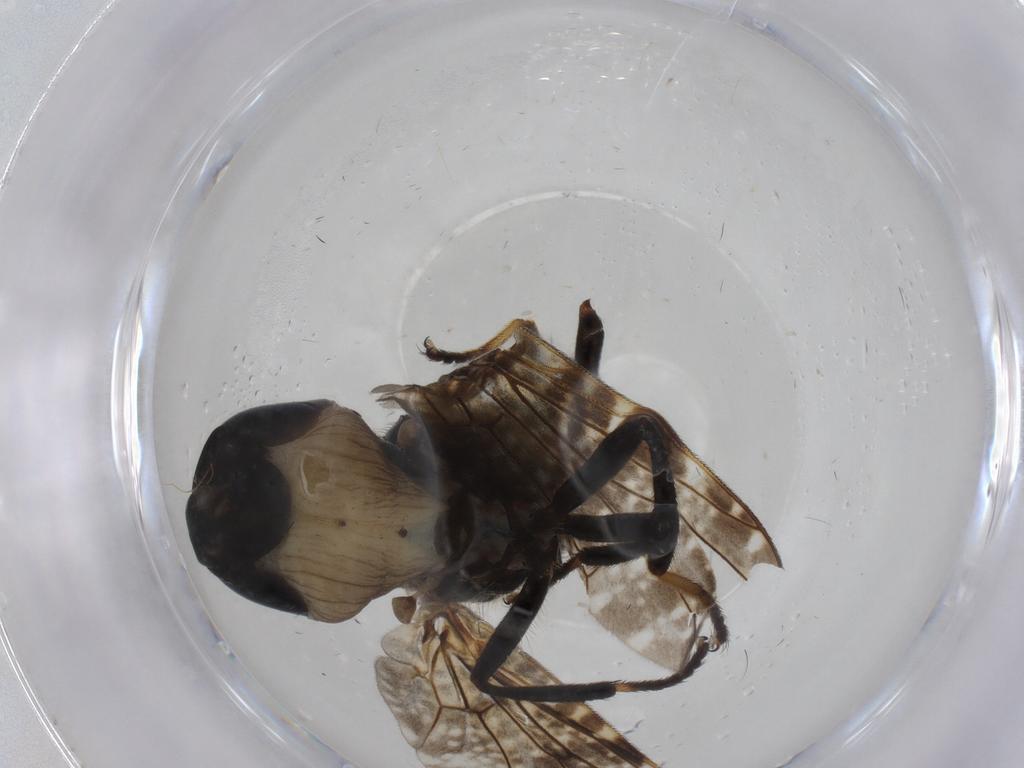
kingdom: Animalia
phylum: Arthropoda
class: Insecta
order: Diptera
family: Platystomatidae
